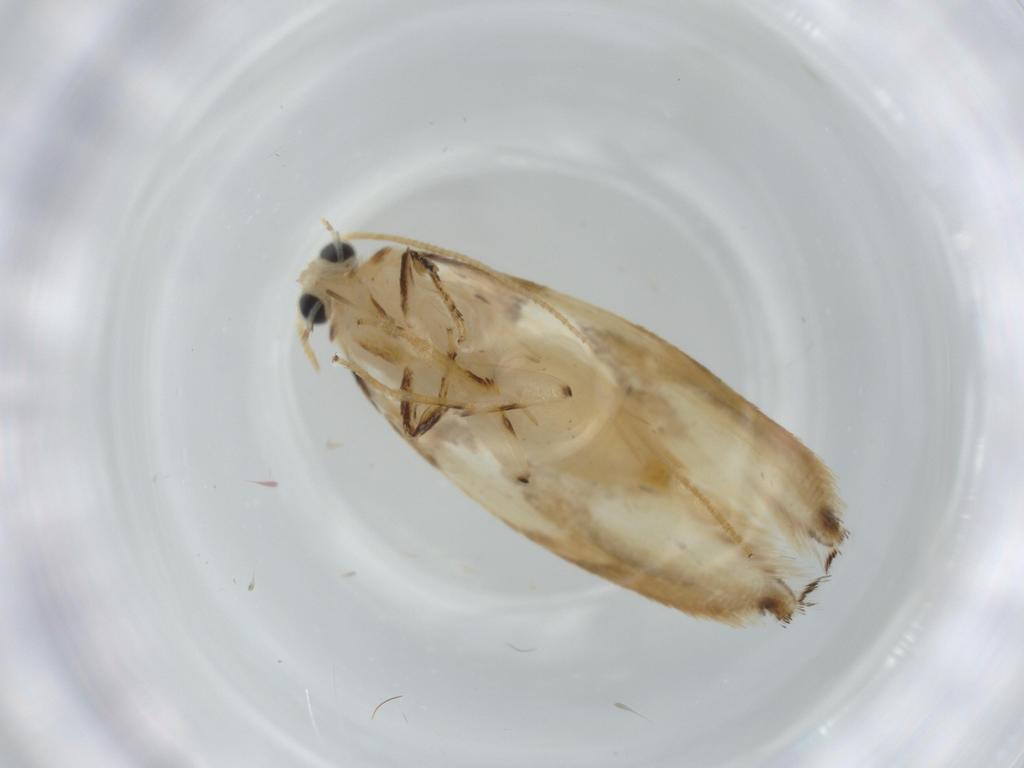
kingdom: Animalia
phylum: Arthropoda
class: Insecta
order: Lepidoptera
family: Tineidae
